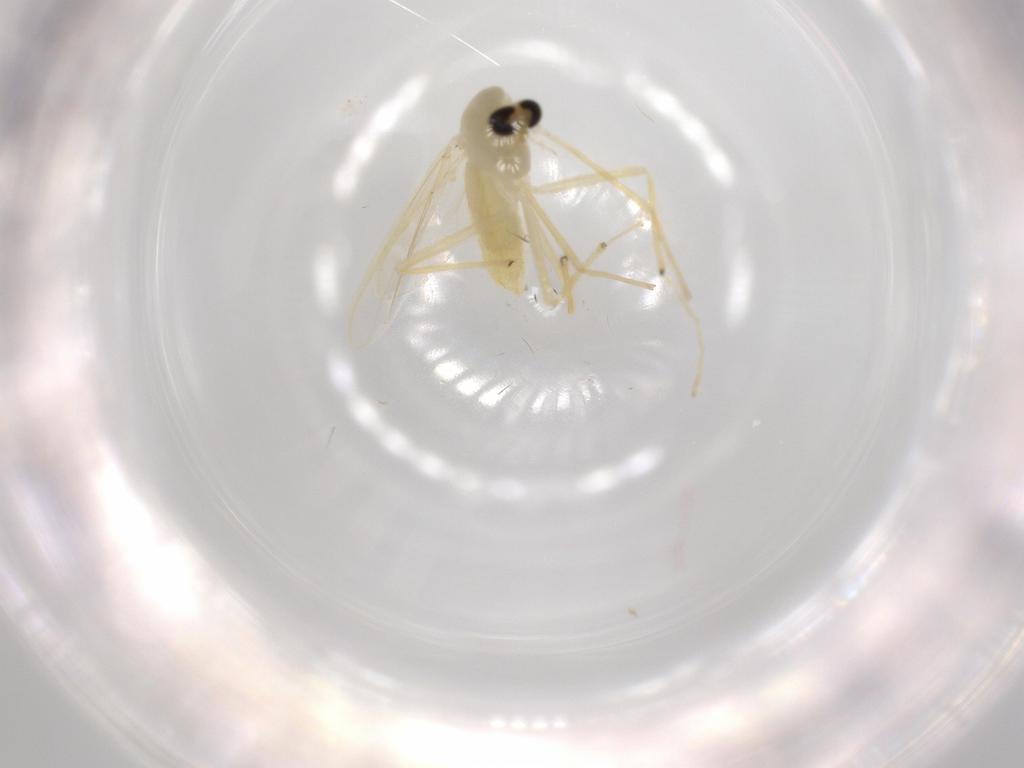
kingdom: Animalia
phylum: Arthropoda
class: Insecta
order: Diptera
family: Chironomidae
